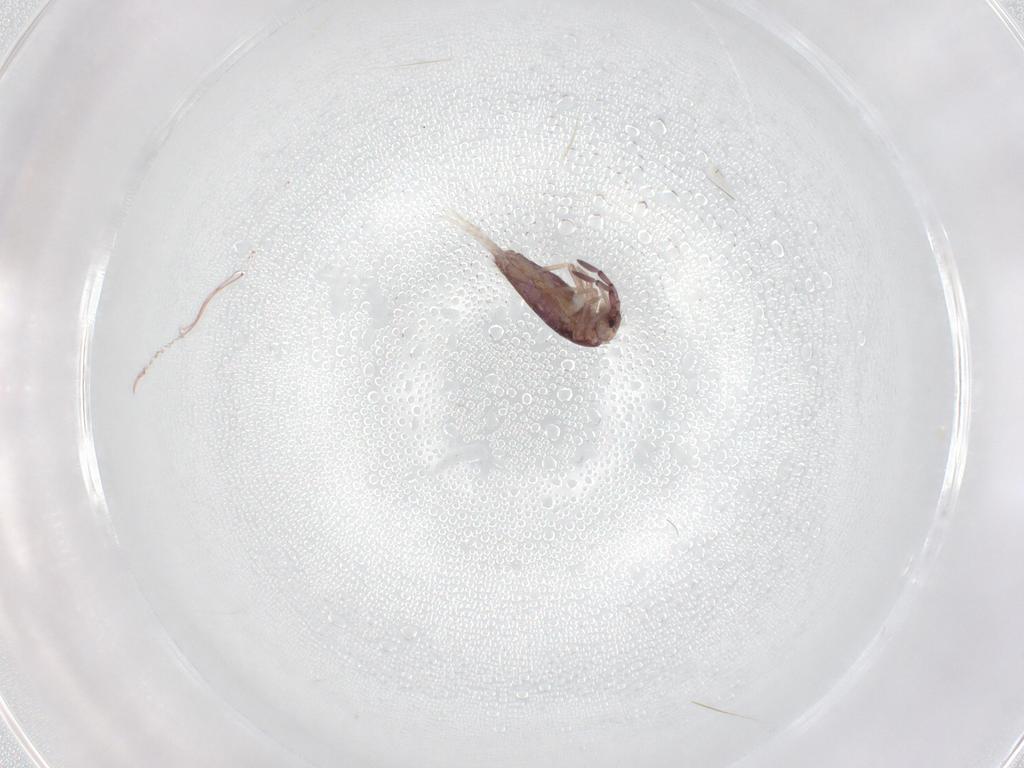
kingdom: Animalia
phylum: Arthropoda
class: Collembola
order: Entomobryomorpha
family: Entomobryidae
